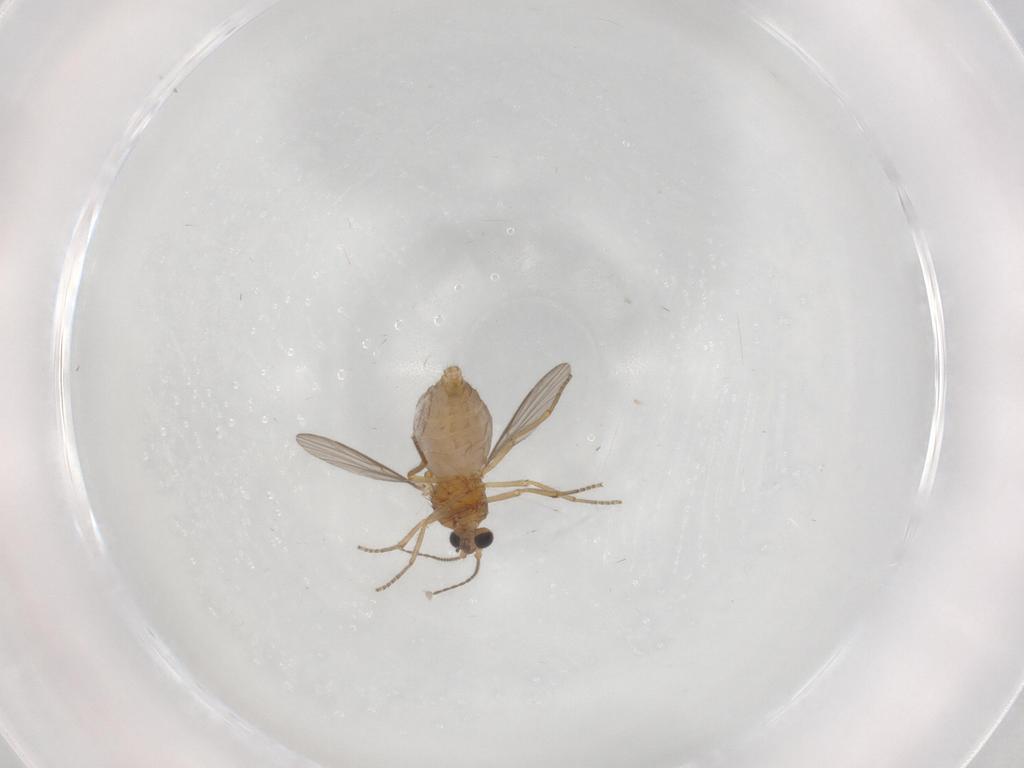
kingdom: Animalia
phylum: Arthropoda
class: Insecta
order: Diptera
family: Ceratopogonidae
